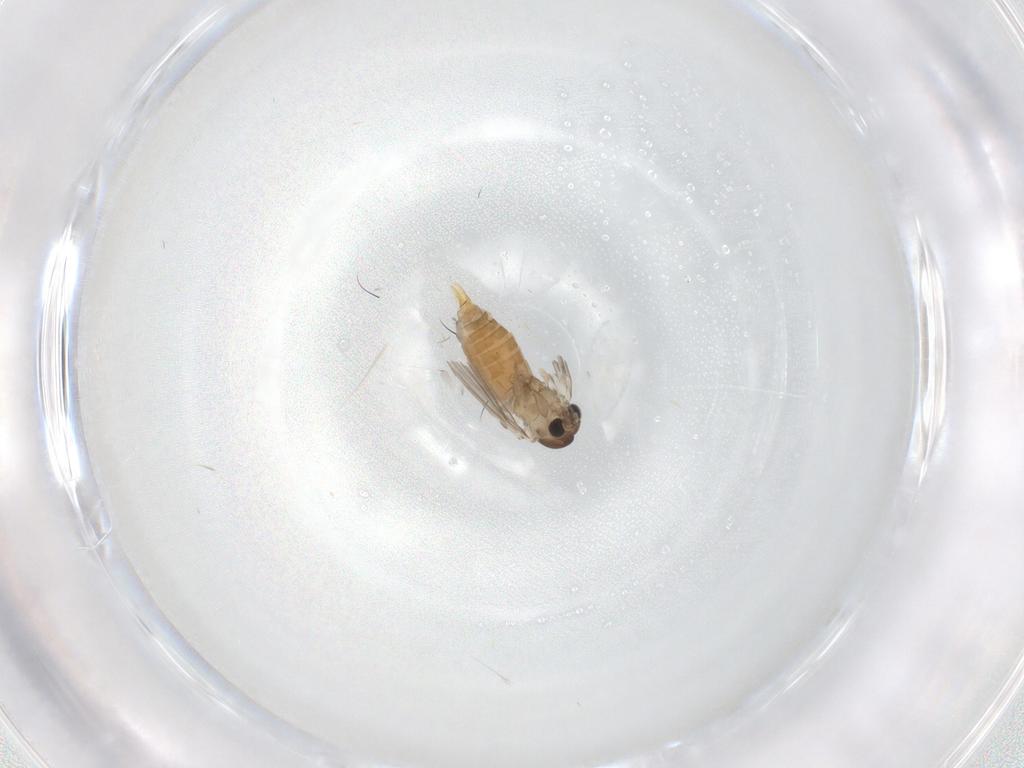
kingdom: Animalia
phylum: Arthropoda
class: Insecta
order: Diptera
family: Psychodidae
